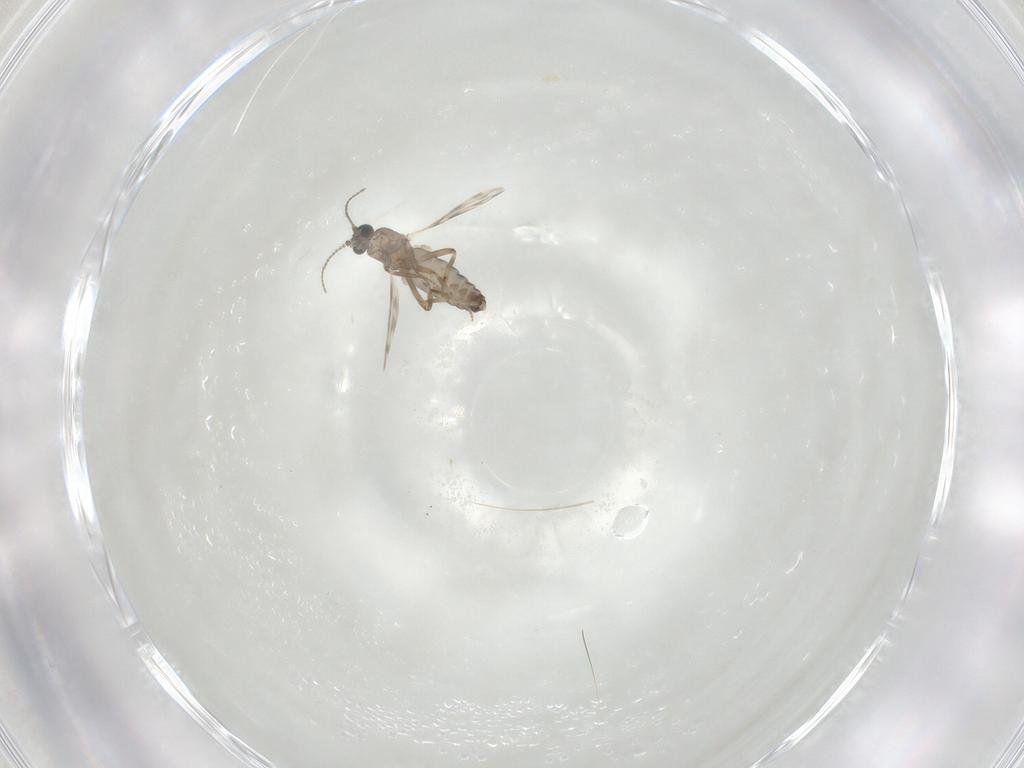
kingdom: Animalia
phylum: Arthropoda
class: Insecta
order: Diptera
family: Ceratopogonidae
